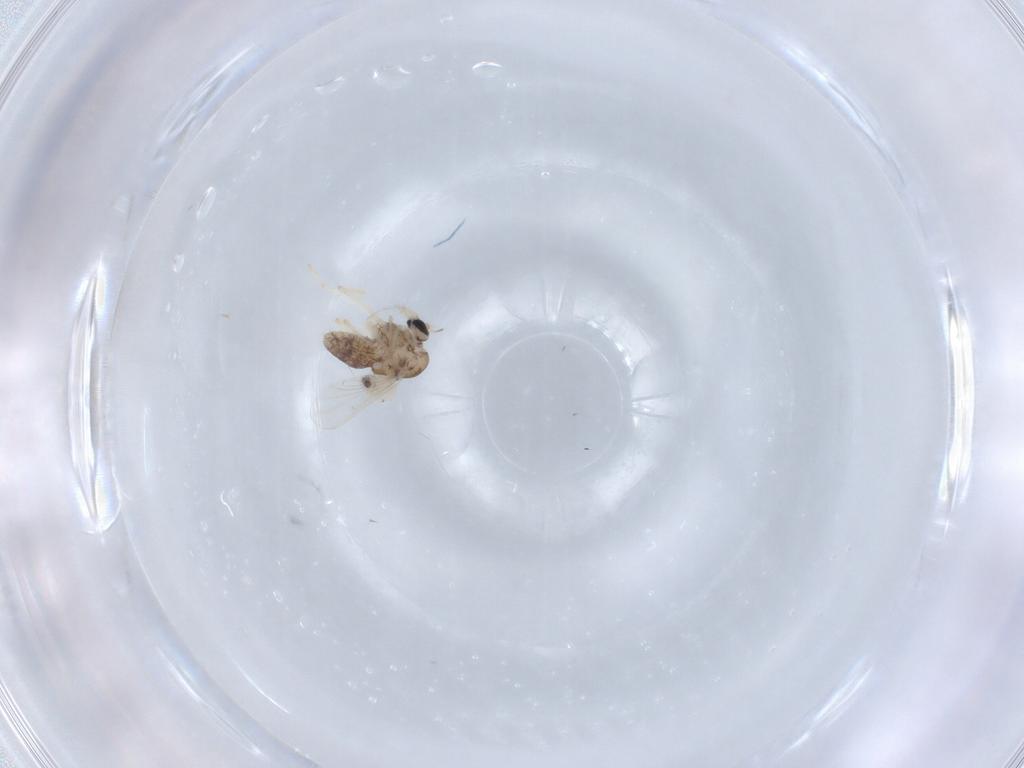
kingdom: Animalia
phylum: Arthropoda
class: Insecta
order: Diptera
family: Chironomidae
